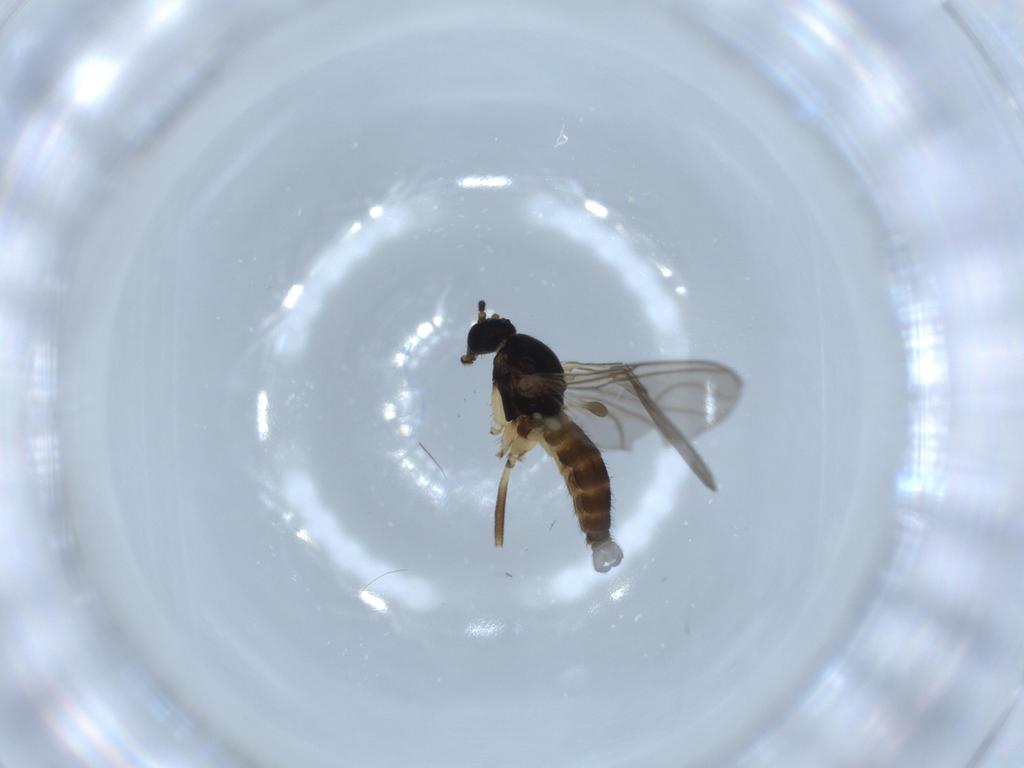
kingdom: Animalia
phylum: Arthropoda
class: Insecta
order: Diptera
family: Sciaridae
